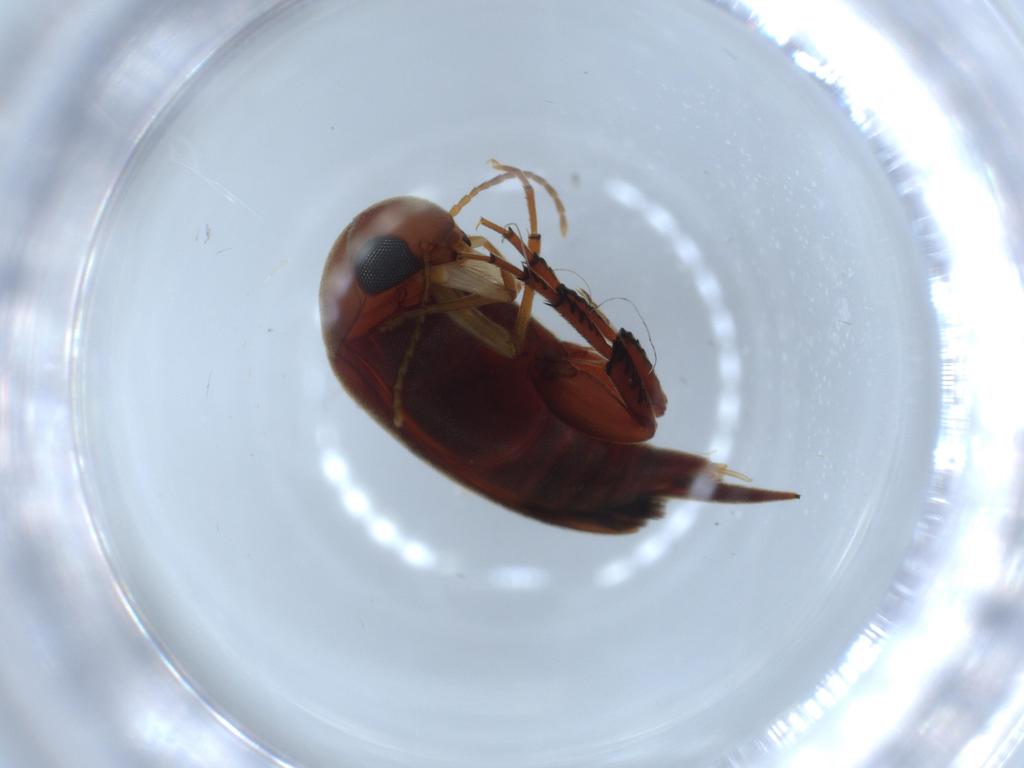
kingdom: Animalia
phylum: Arthropoda
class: Insecta
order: Coleoptera
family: Mordellidae
